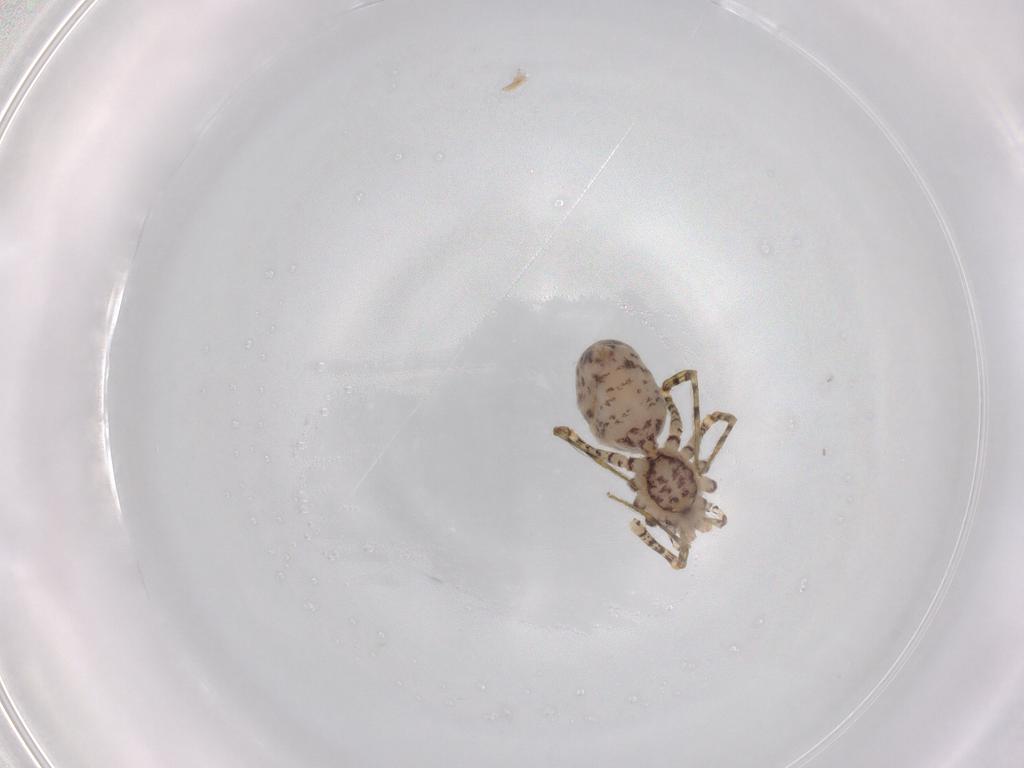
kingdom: Animalia
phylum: Arthropoda
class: Arachnida
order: Araneae
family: Scytodidae
